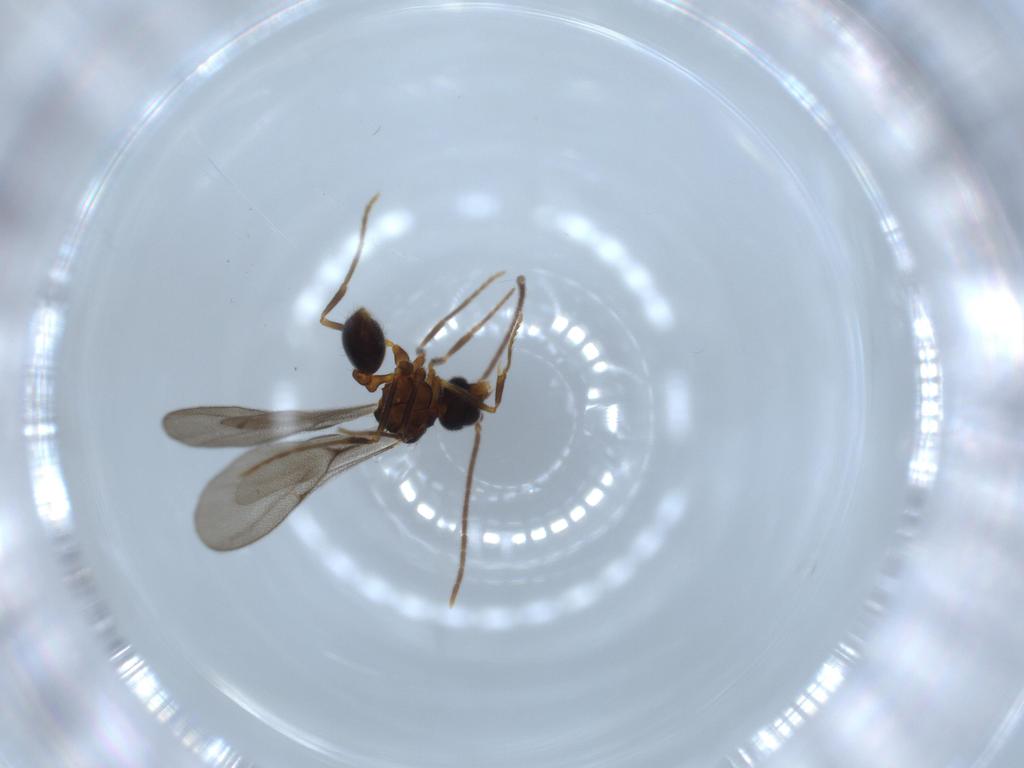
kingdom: Animalia
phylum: Arthropoda
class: Insecta
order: Hymenoptera
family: Formicidae
